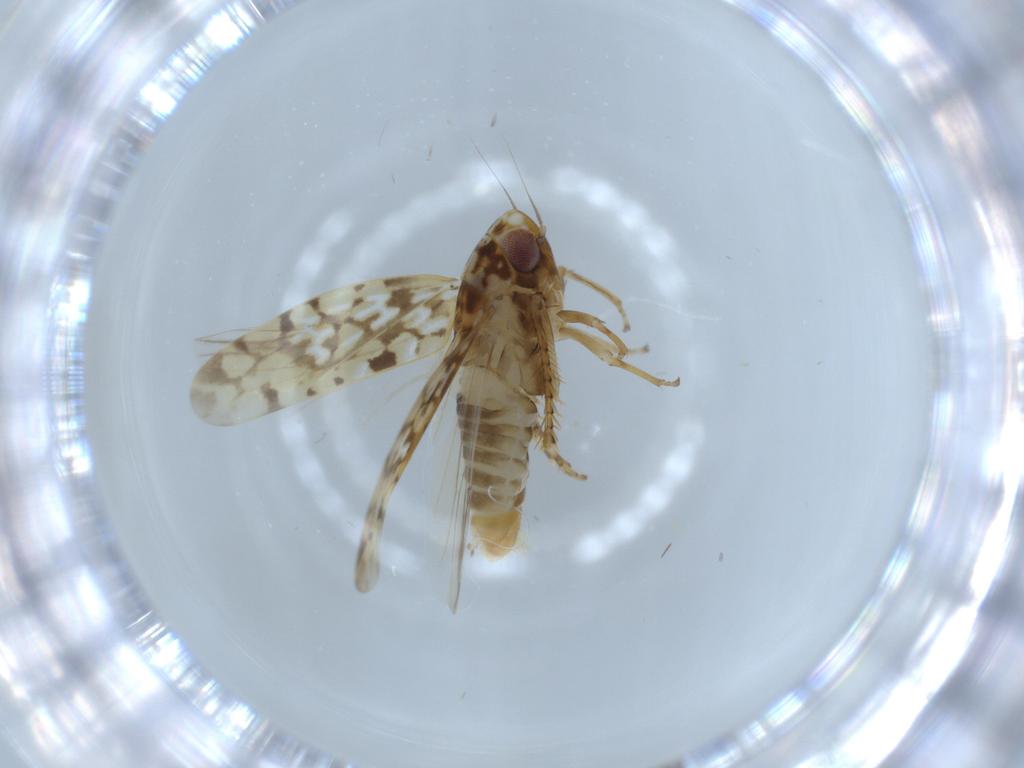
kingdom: Animalia
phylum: Arthropoda
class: Insecta
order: Hemiptera
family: Cicadellidae
